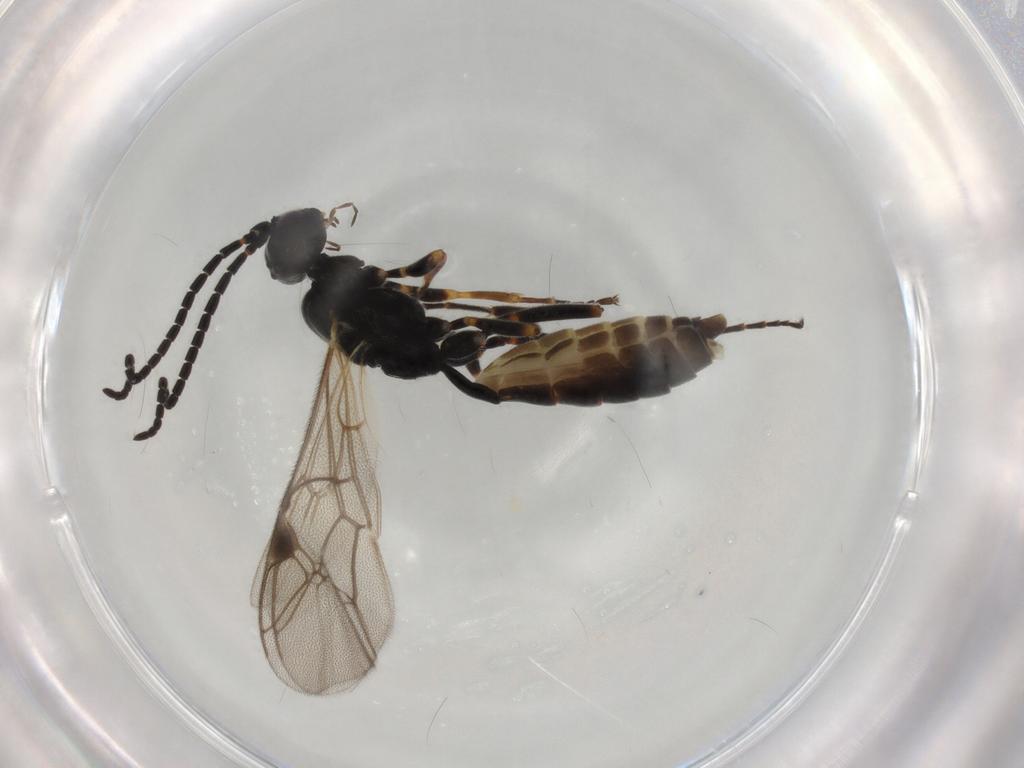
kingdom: Animalia
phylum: Arthropoda
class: Insecta
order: Hymenoptera
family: Ichneumonidae
